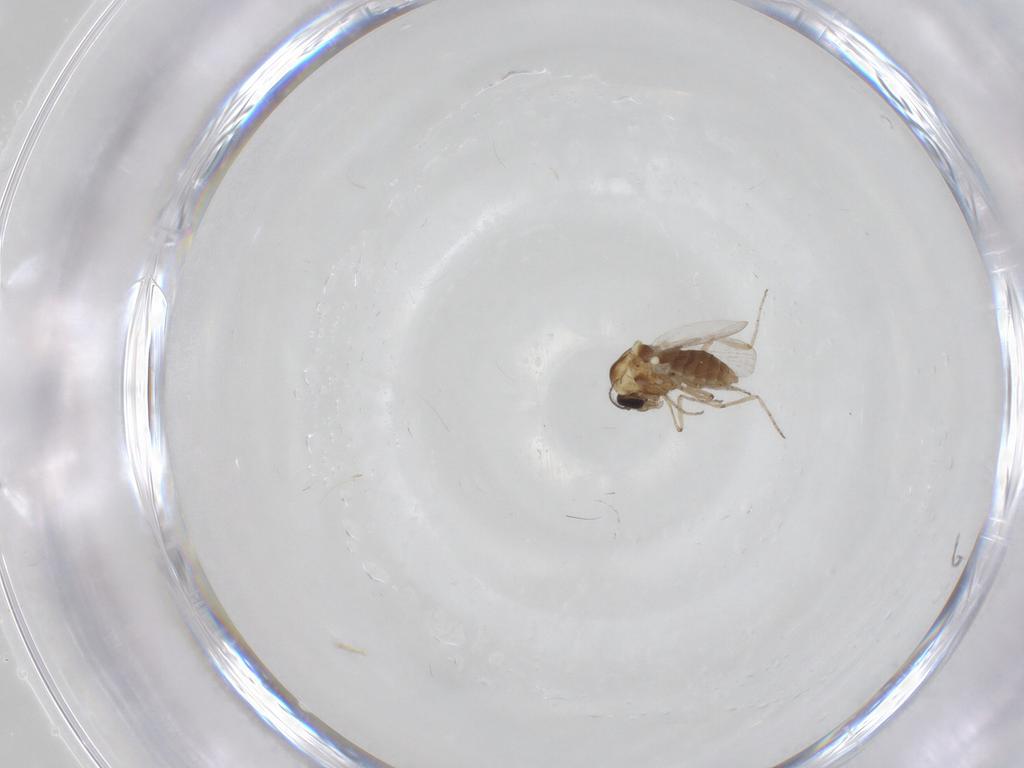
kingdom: Animalia
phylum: Arthropoda
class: Insecta
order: Diptera
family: Ceratopogonidae
